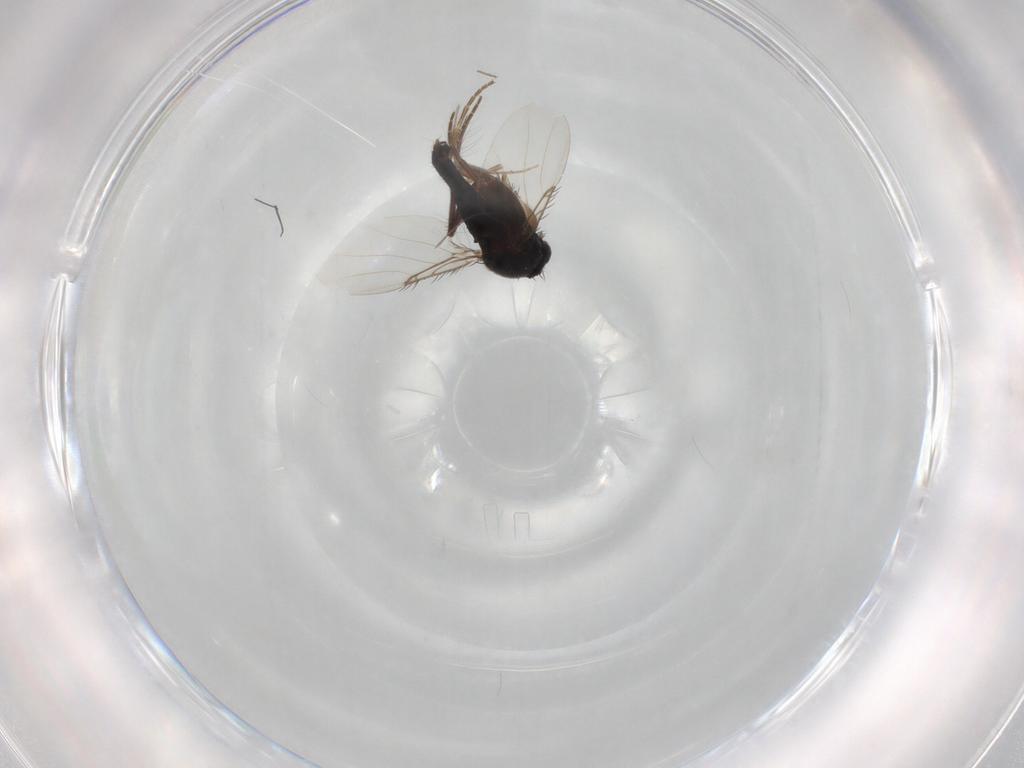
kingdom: Animalia
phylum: Arthropoda
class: Insecta
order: Diptera
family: Phoridae
